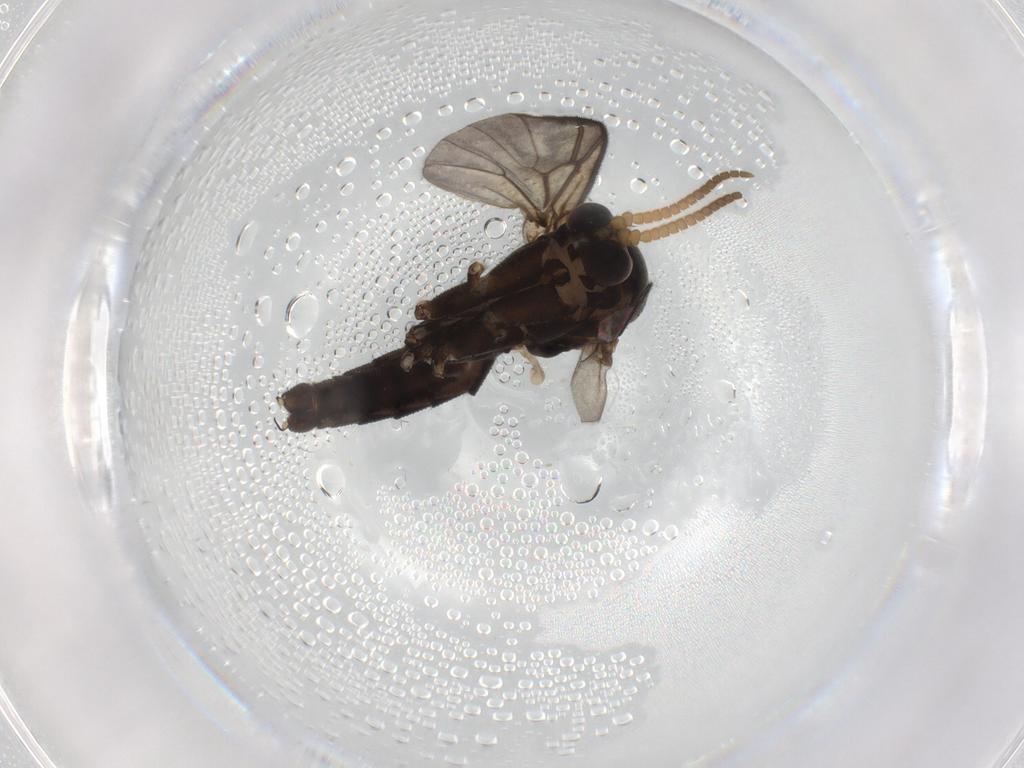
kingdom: Animalia
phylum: Arthropoda
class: Insecta
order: Diptera
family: Phoridae
